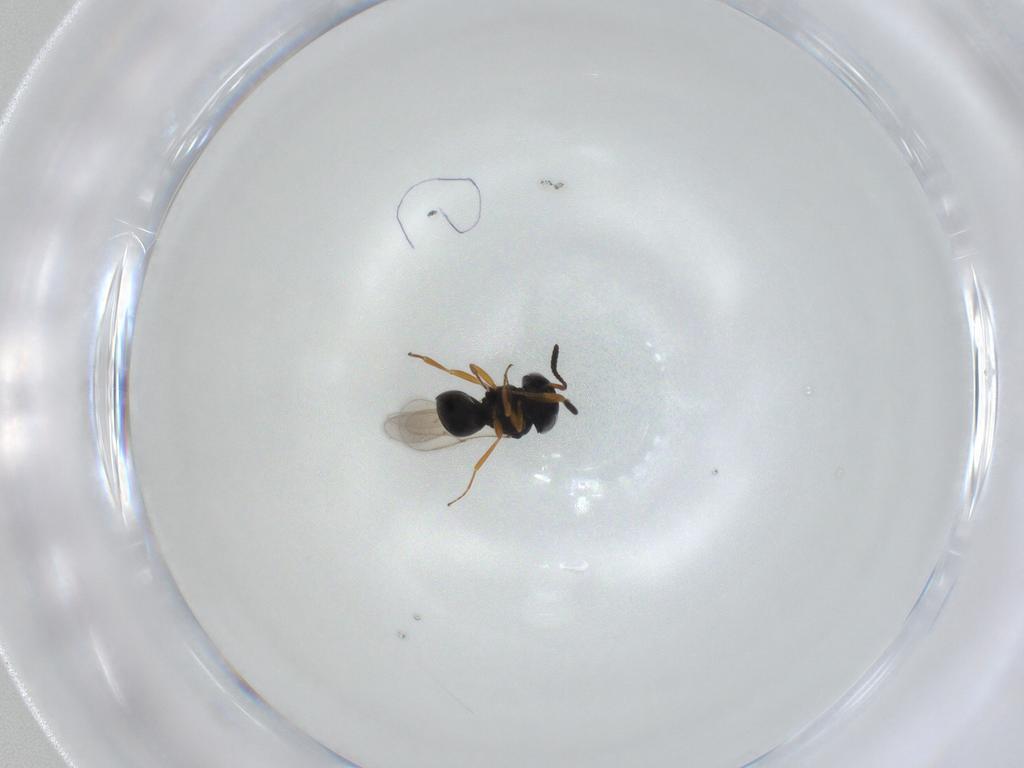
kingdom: Animalia
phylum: Arthropoda
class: Insecta
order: Hymenoptera
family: Scelionidae
